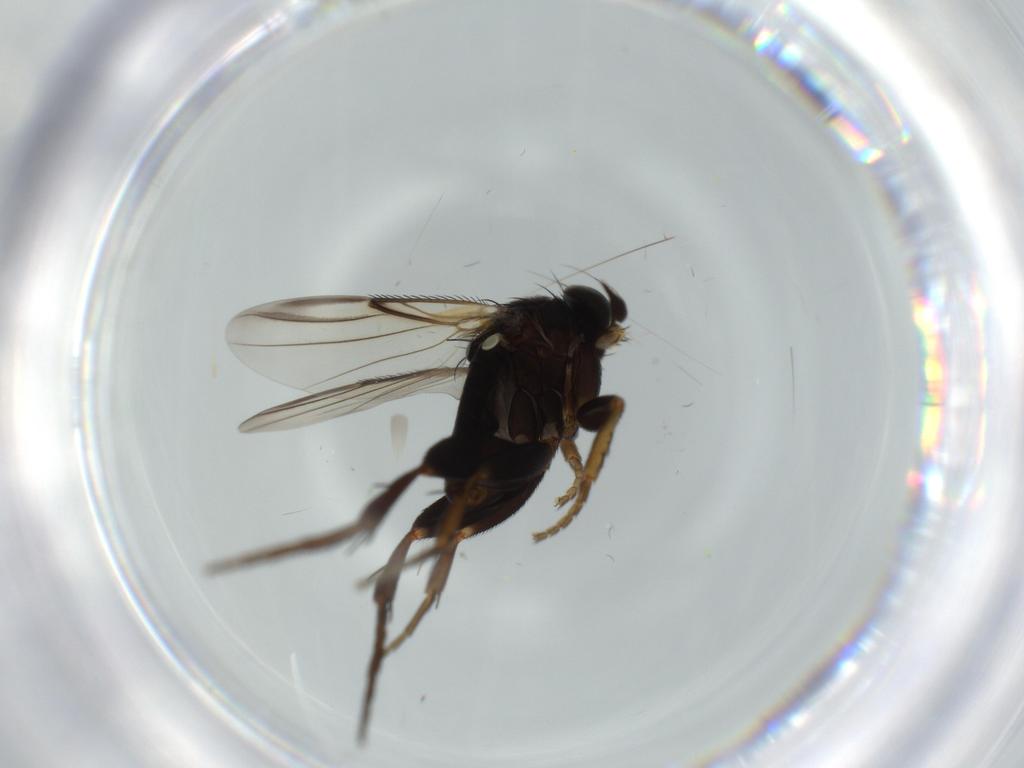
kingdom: Animalia
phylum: Arthropoda
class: Insecta
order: Diptera
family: Phoridae
